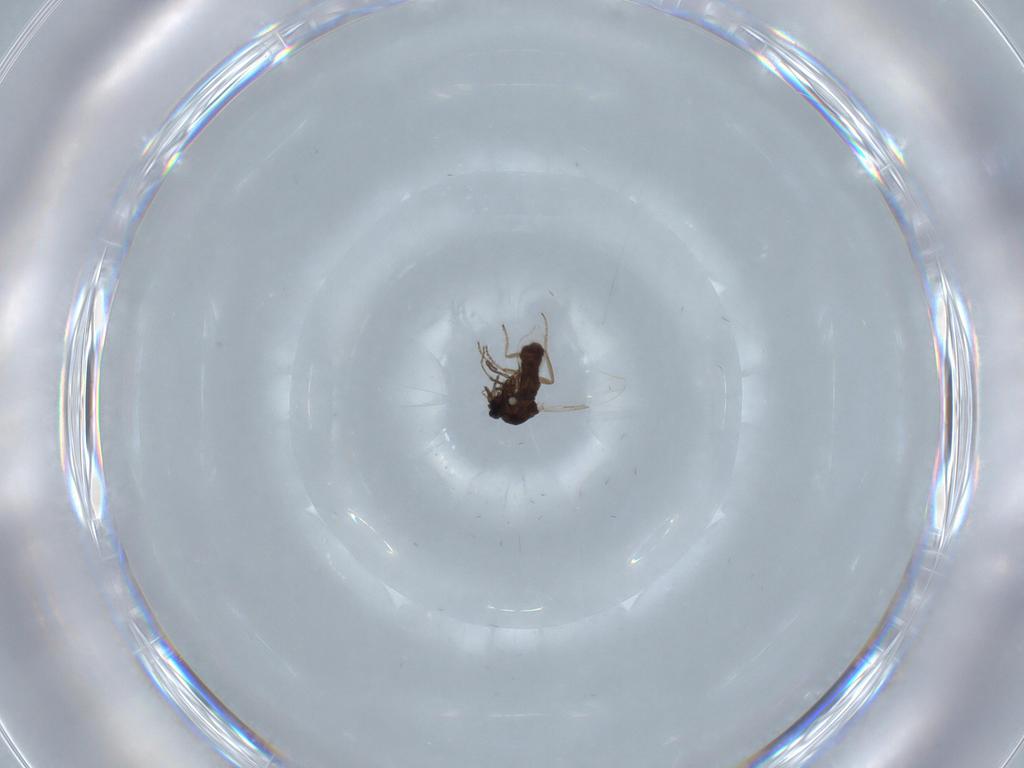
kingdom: Animalia
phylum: Arthropoda
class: Insecta
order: Diptera
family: Ceratopogonidae
